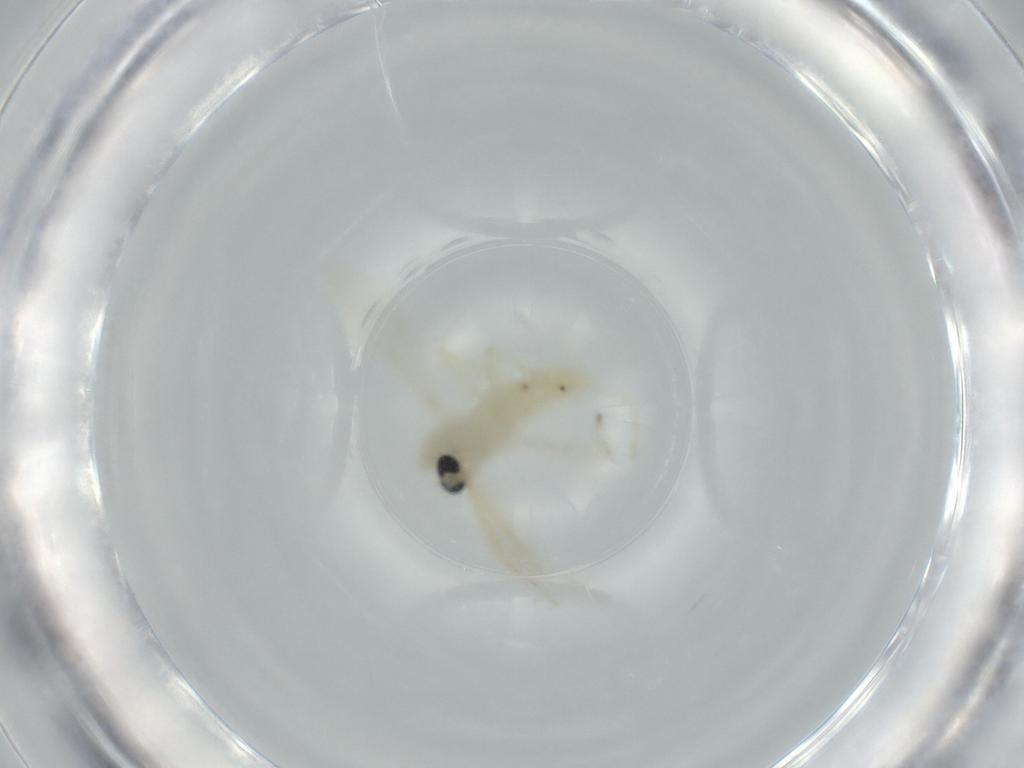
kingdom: Animalia
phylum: Arthropoda
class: Insecta
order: Diptera
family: Chironomidae
